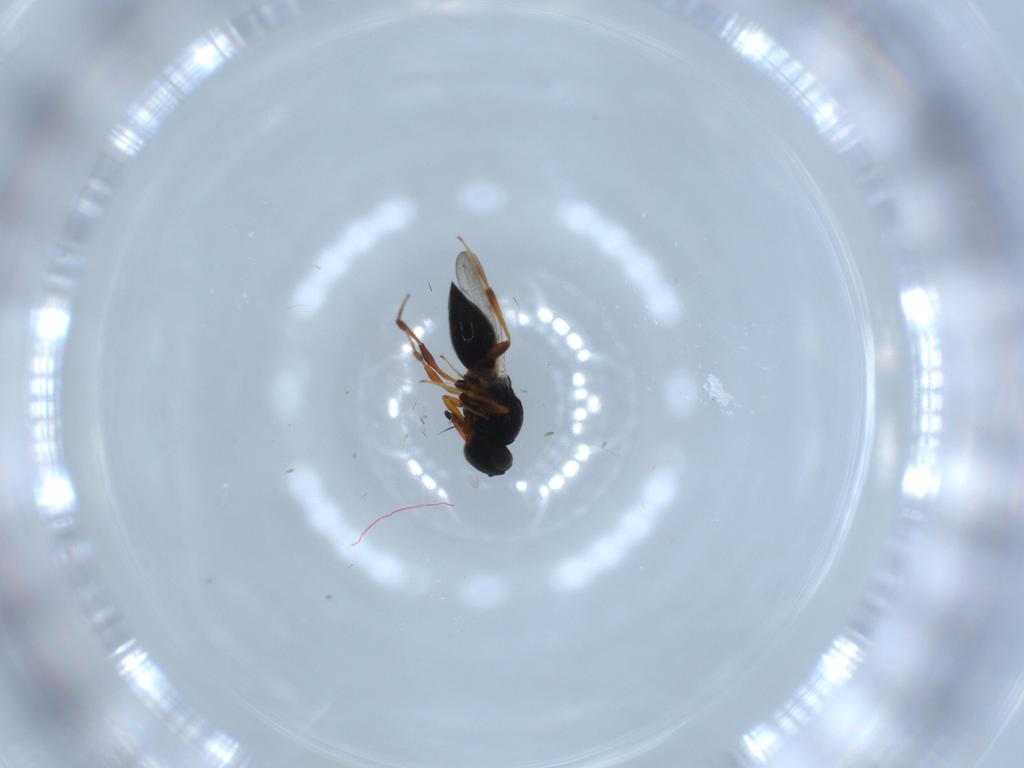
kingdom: Animalia
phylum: Arthropoda
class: Insecta
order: Hymenoptera
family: Platygastridae
